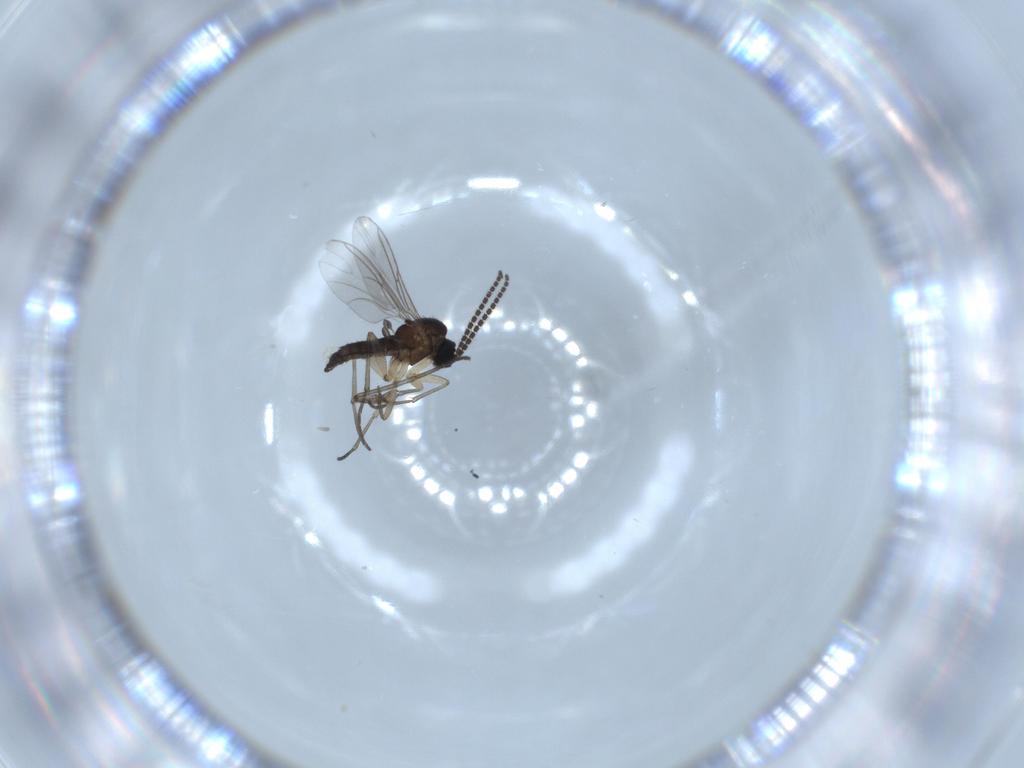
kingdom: Animalia
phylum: Arthropoda
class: Insecta
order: Diptera
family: Sciaridae
